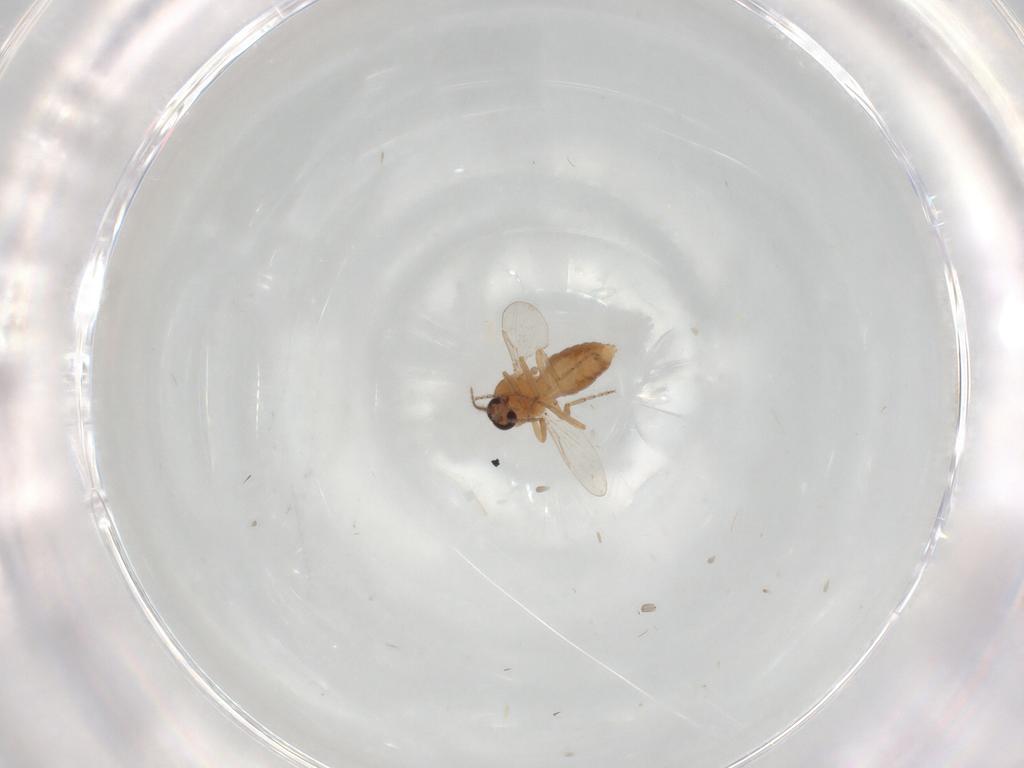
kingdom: Animalia
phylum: Arthropoda
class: Insecta
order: Diptera
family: Ceratopogonidae
